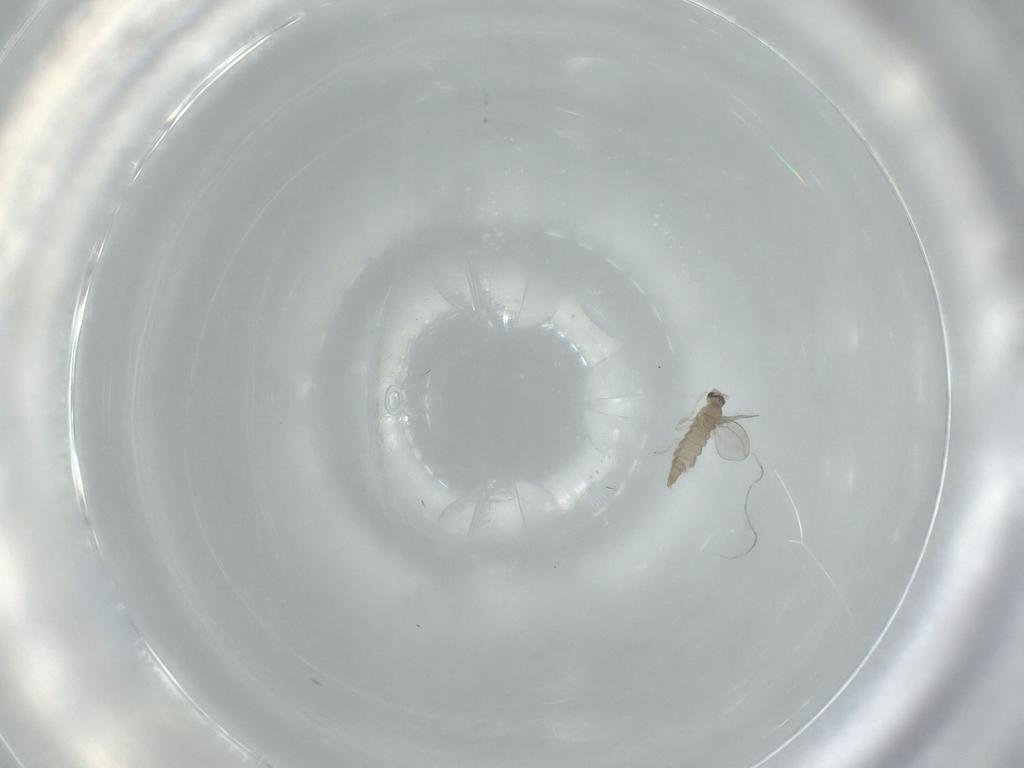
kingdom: Animalia
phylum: Arthropoda
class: Insecta
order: Diptera
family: Cecidomyiidae
